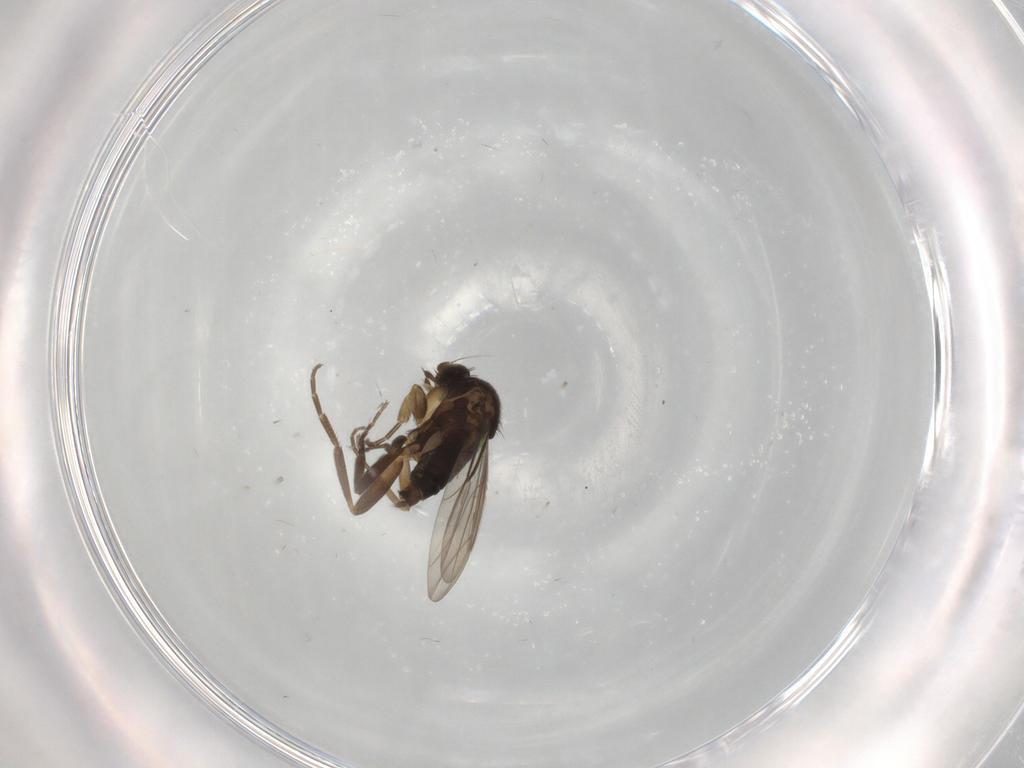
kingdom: Animalia
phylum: Arthropoda
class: Insecta
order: Diptera
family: Phoridae
